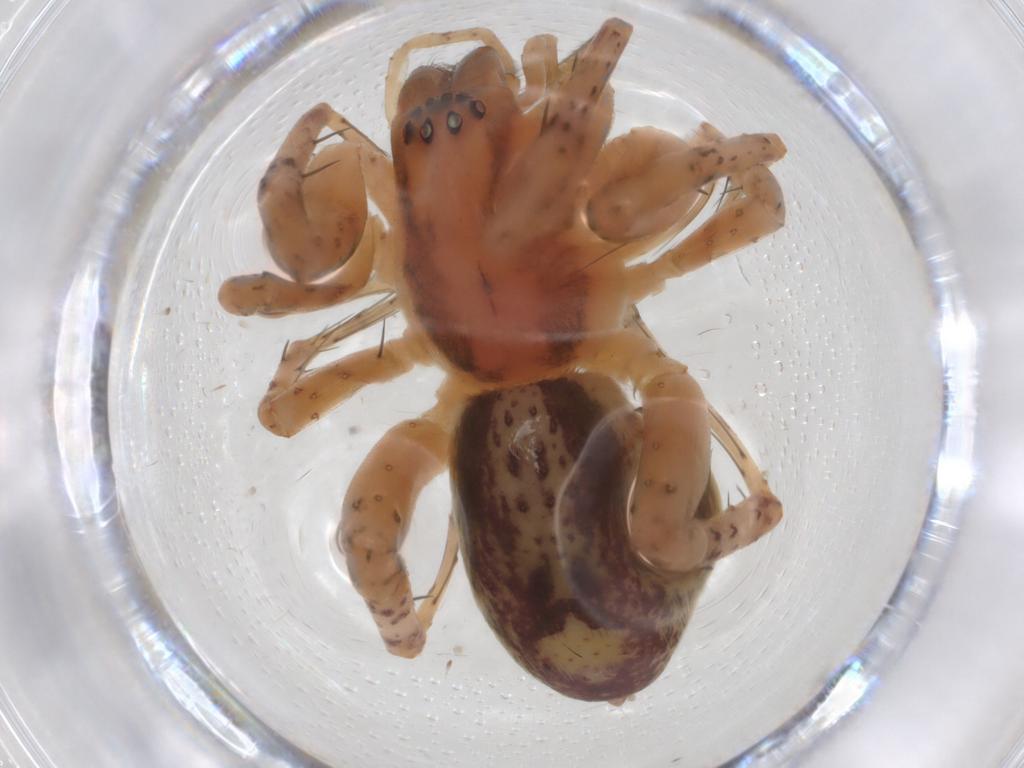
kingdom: Animalia
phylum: Arthropoda
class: Arachnida
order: Araneae
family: Anyphaenidae
